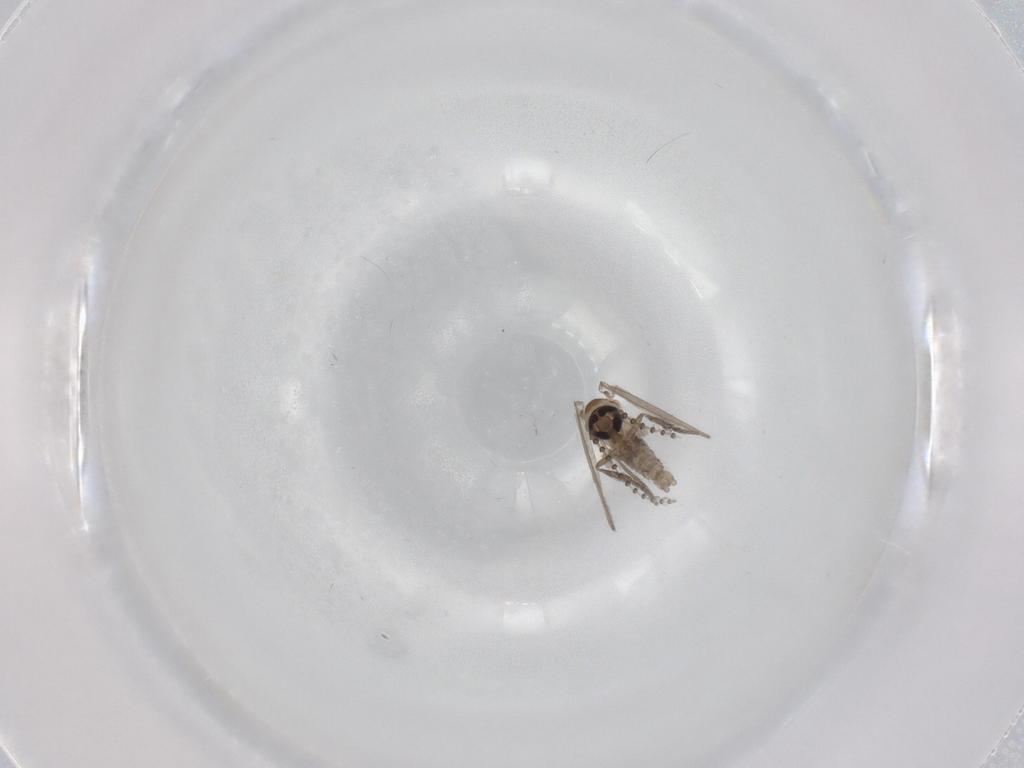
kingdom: Animalia
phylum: Arthropoda
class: Insecta
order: Diptera
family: Psychodidae
